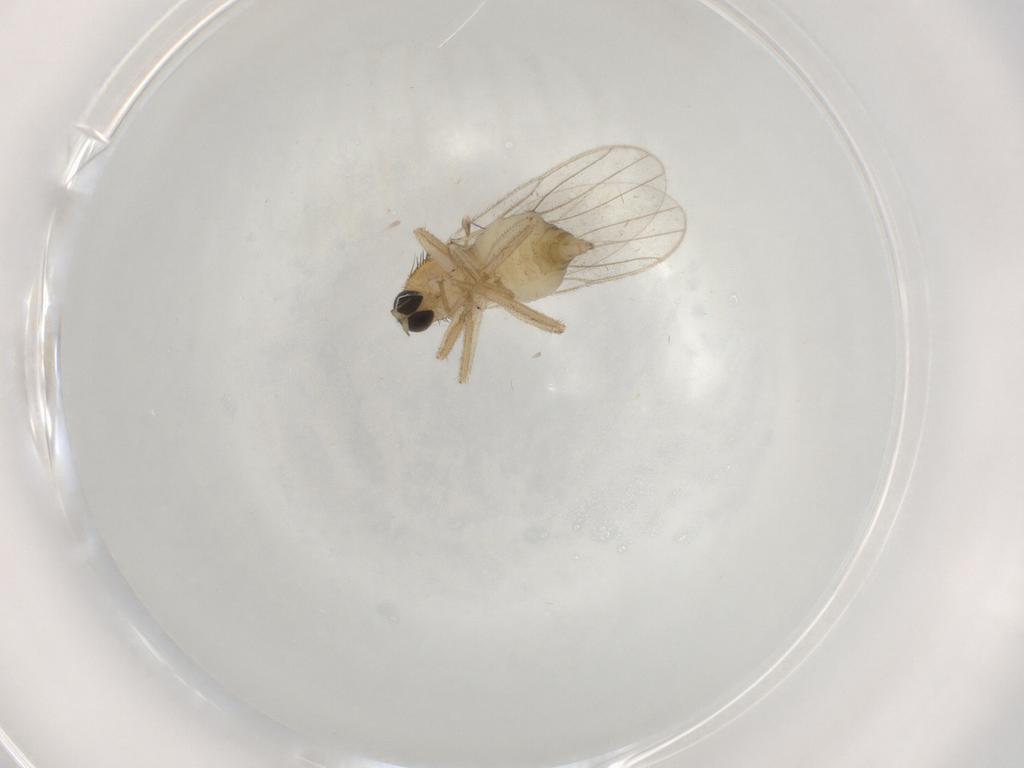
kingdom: Animalia
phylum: Arthropoda
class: Insecta
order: Diptera
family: Hybotidae
